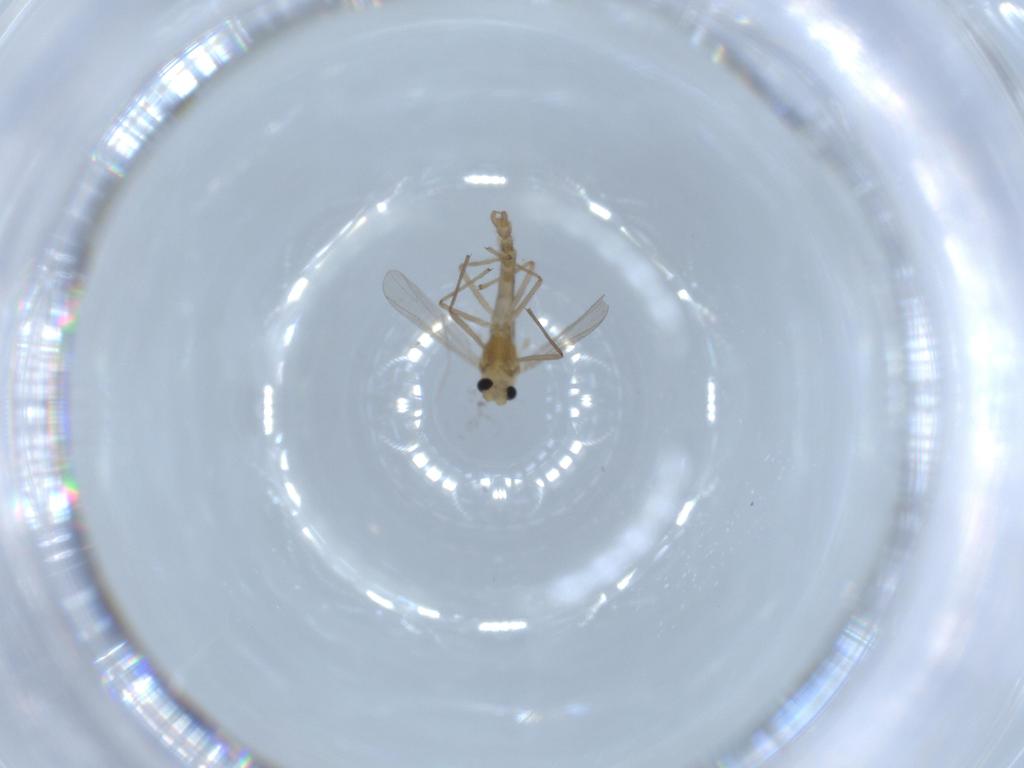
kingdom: Animalia
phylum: Arthropoda
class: Insecta
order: Diptera
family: Chironomidae
